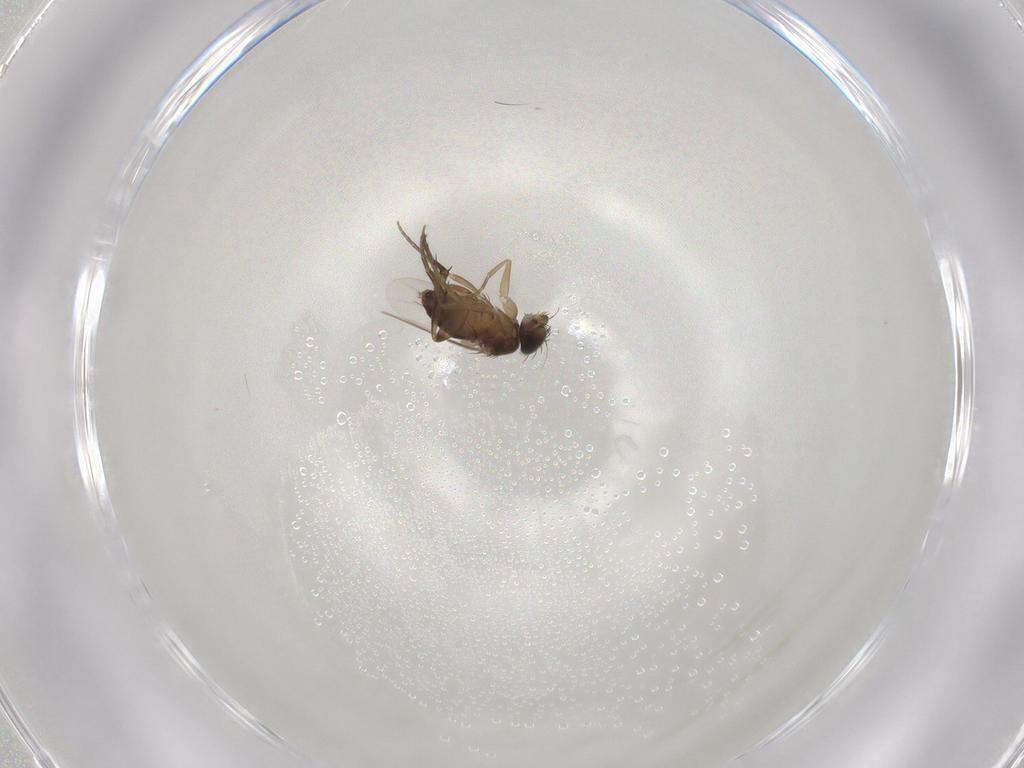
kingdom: Animalia
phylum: Arthropoda
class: Insecta
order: Diptera
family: Phoridae
